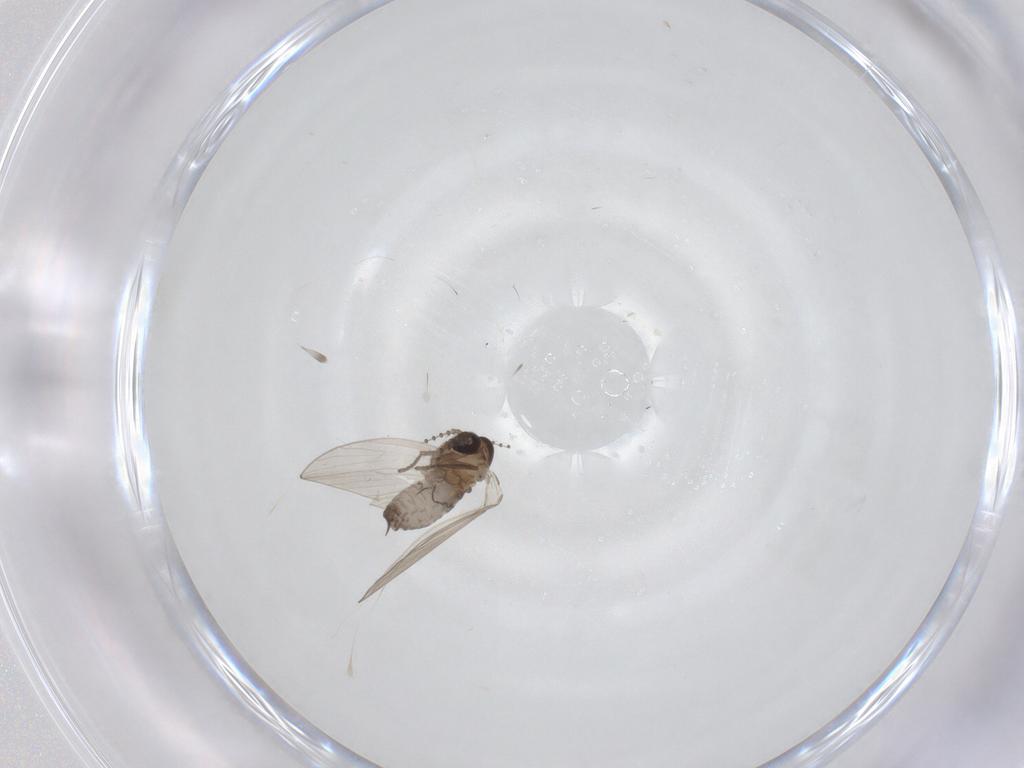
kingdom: Animalia
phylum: Arthropoda
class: Insecta
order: Diptera
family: Psychodidae
